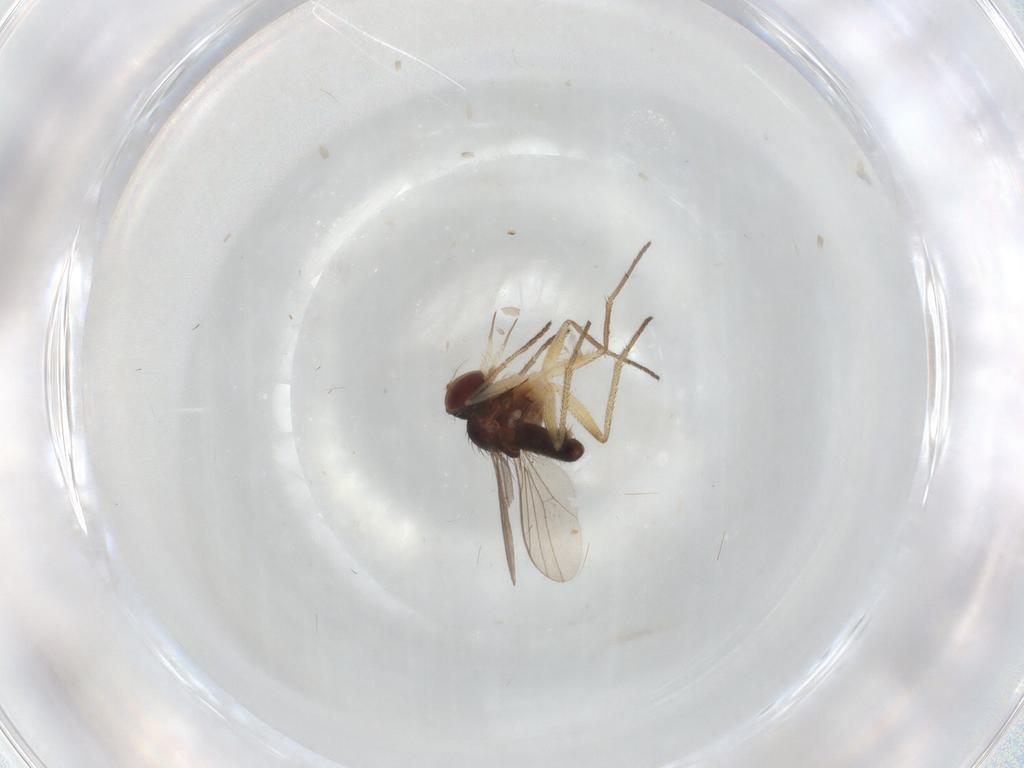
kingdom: Animalia
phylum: Arthropoda
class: Insecta
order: Diptera
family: Dolichopodidae
